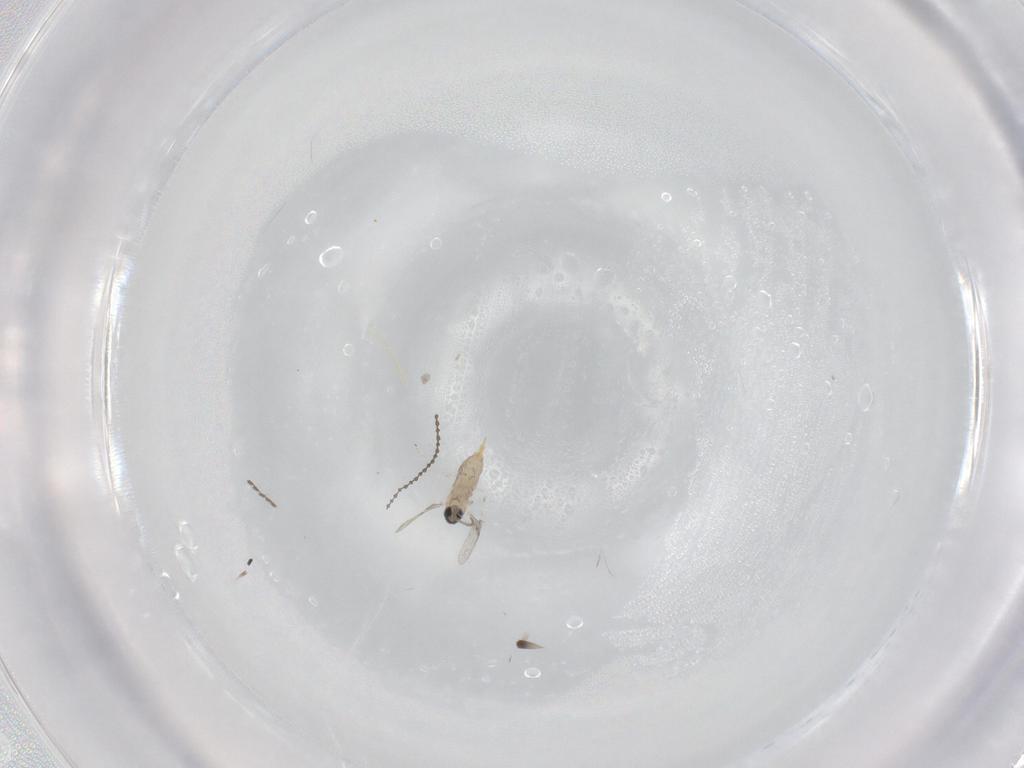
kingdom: Animalia
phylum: Arthropoda
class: Insecta
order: Diptera
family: Cecidomyiidae
